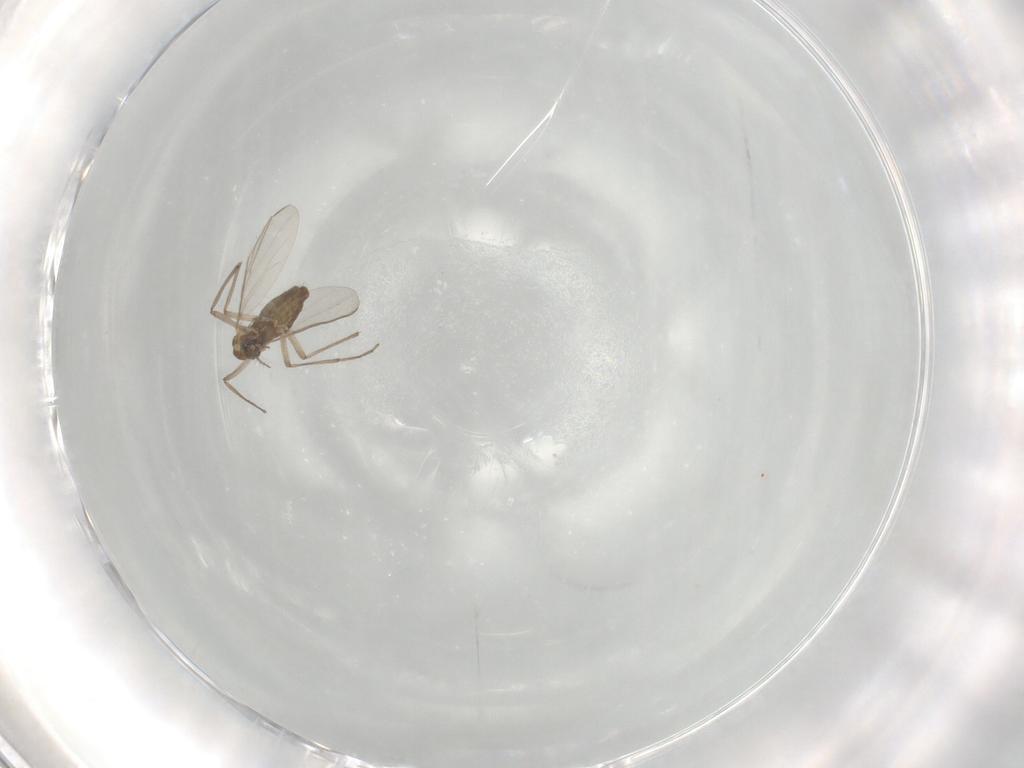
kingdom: Animalia
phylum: Arthropoda
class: Insecta
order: Diptera
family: Chironomidae
